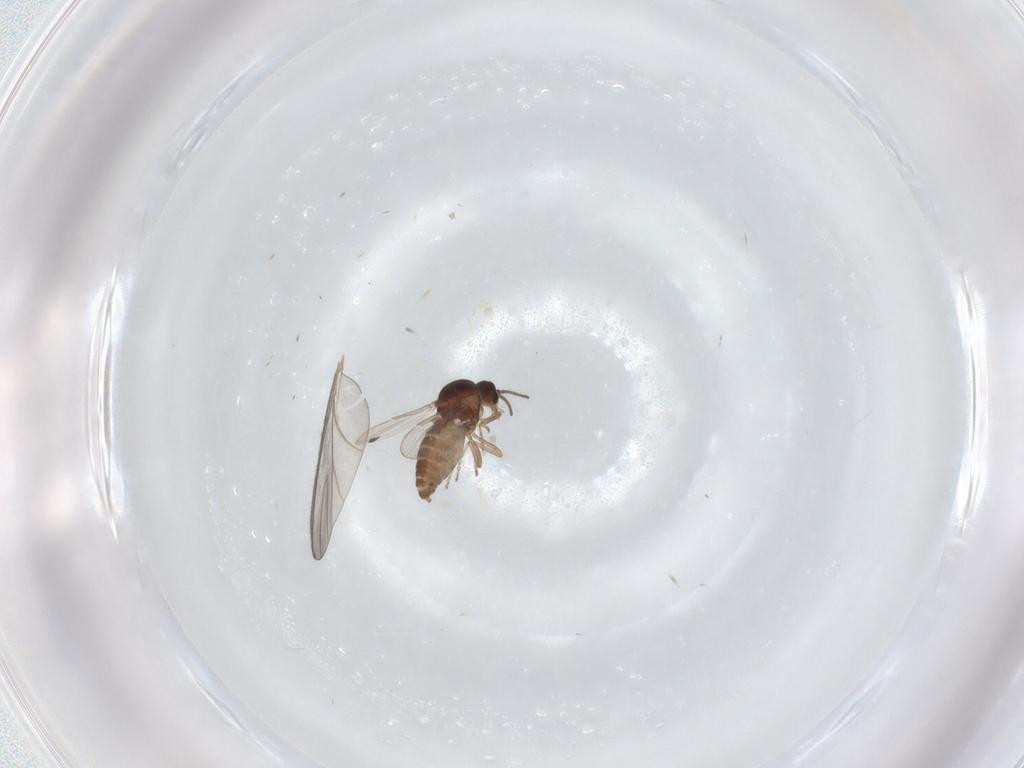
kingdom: Animalia
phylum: Arthropoda
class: Insecta
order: Diptera
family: Ceratopogonidae
